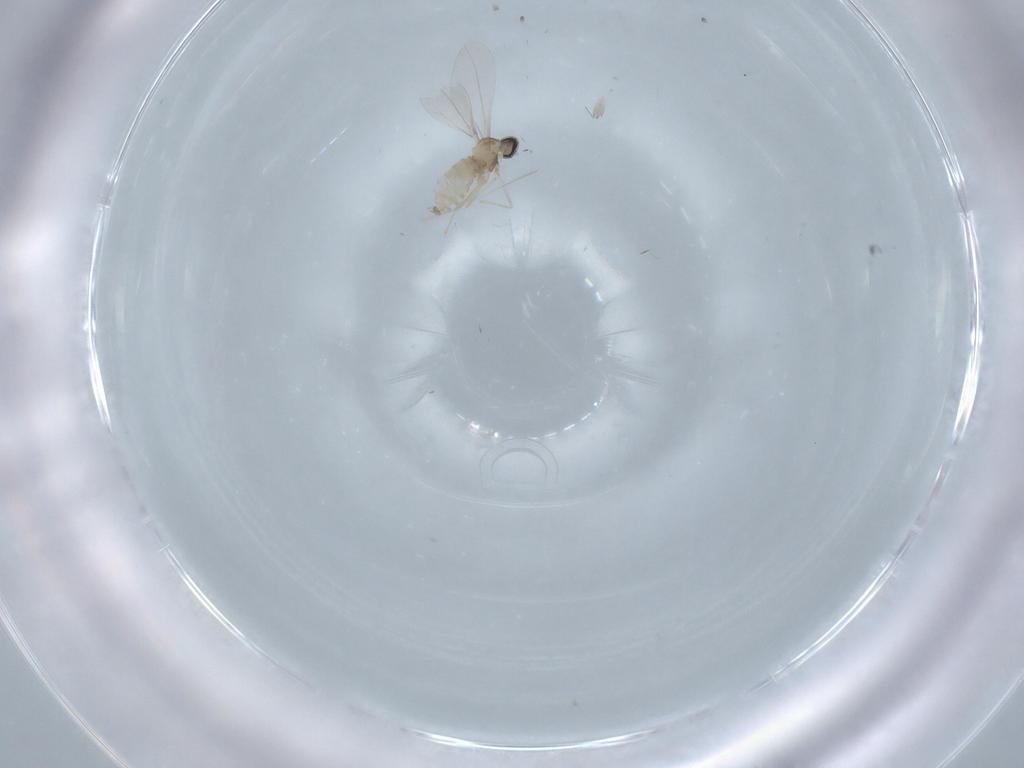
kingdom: Animalia
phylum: Arthropoda
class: Insecta
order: Diptera
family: Cecidomyiidae
